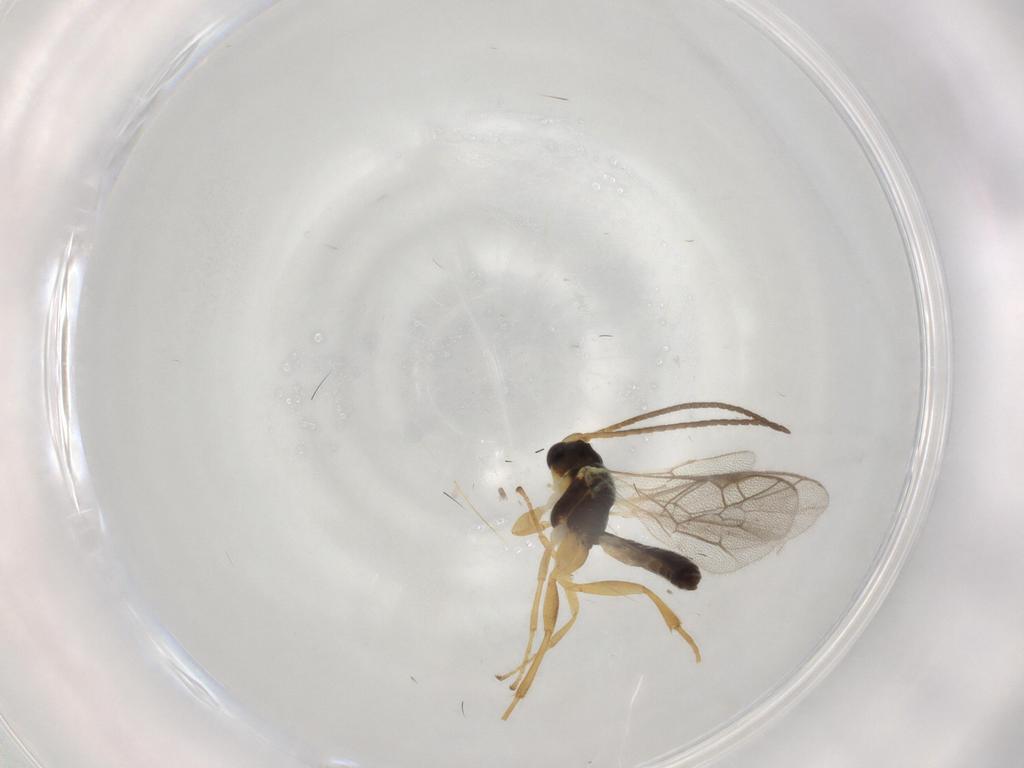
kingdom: Animalia
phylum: Arthropoda
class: Insecta
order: Hymenoptera
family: Ichneumonidae
